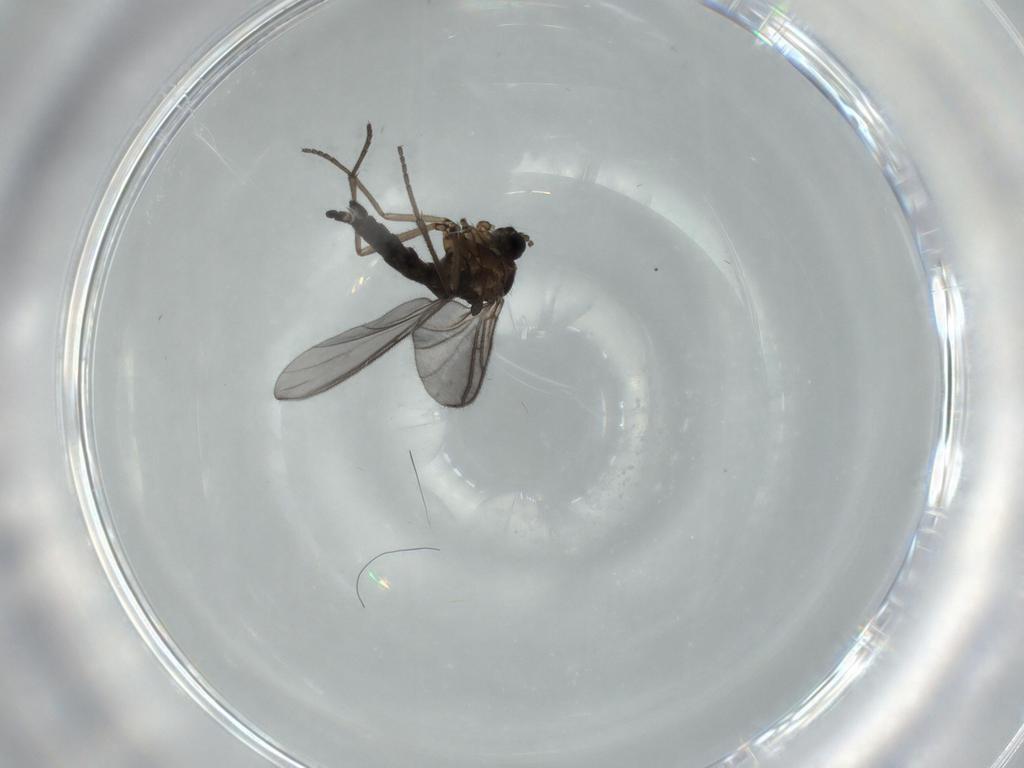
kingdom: Animalia
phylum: Arthropoda
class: Insecta
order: Diptera
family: Sciaridae
